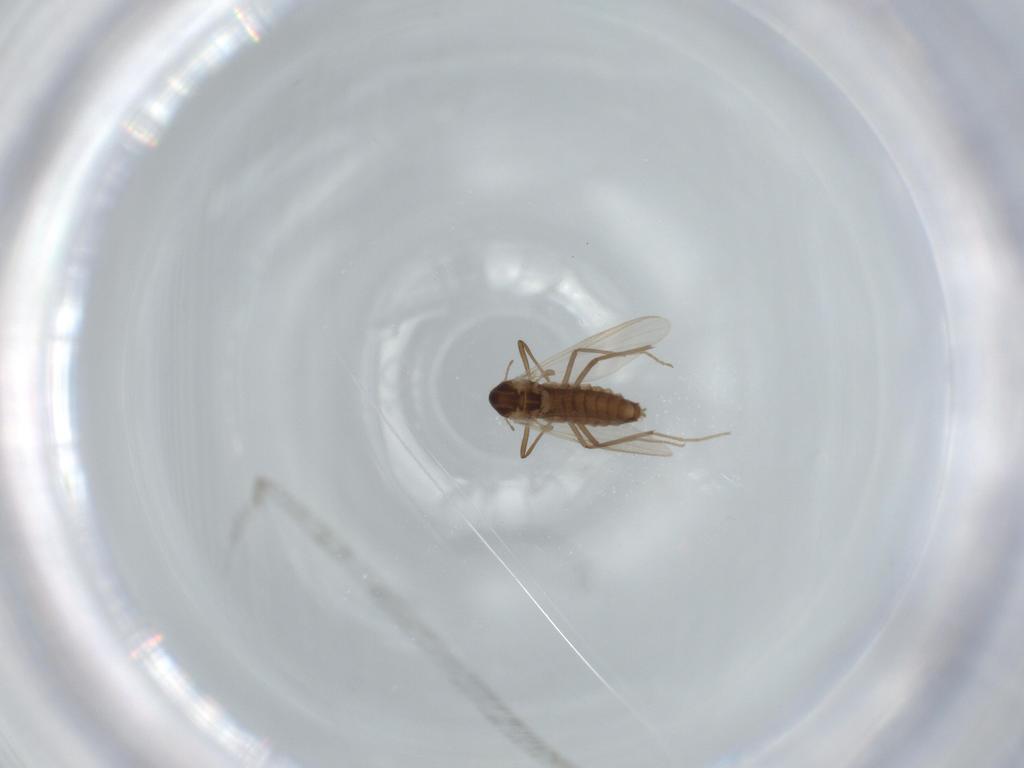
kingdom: Animalia
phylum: Arthropoda
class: Insecta
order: Diptera
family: Chironomidae
